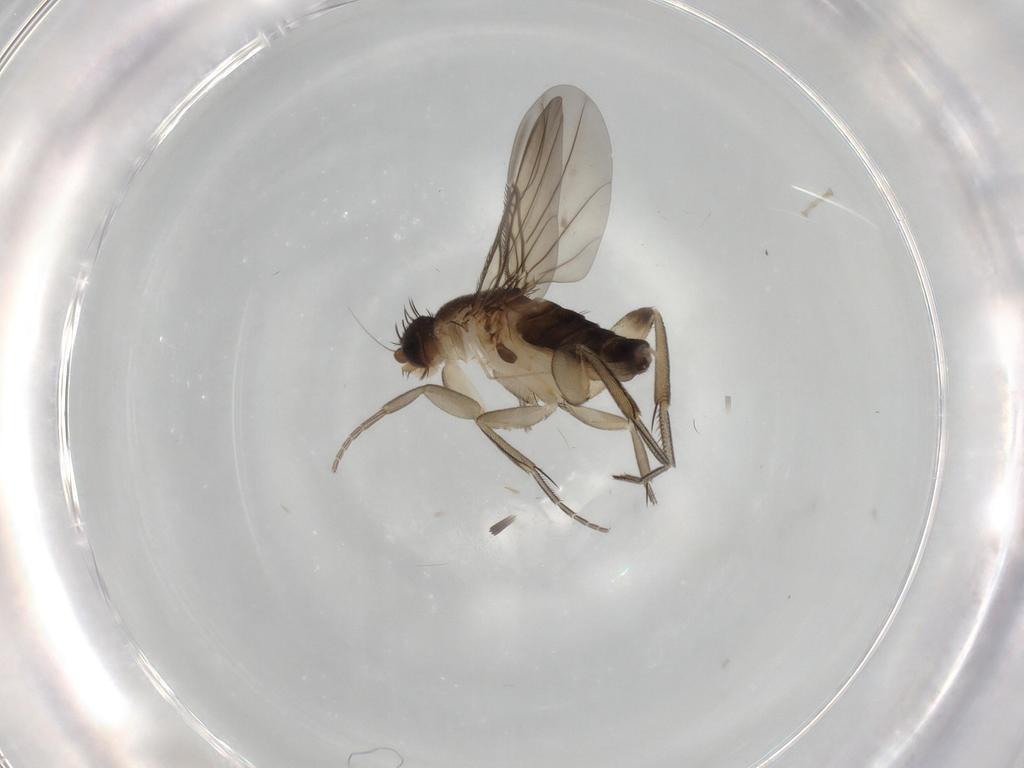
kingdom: Animalia
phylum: Arthropoda
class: Insecta
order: Diptera
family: Phoridae
